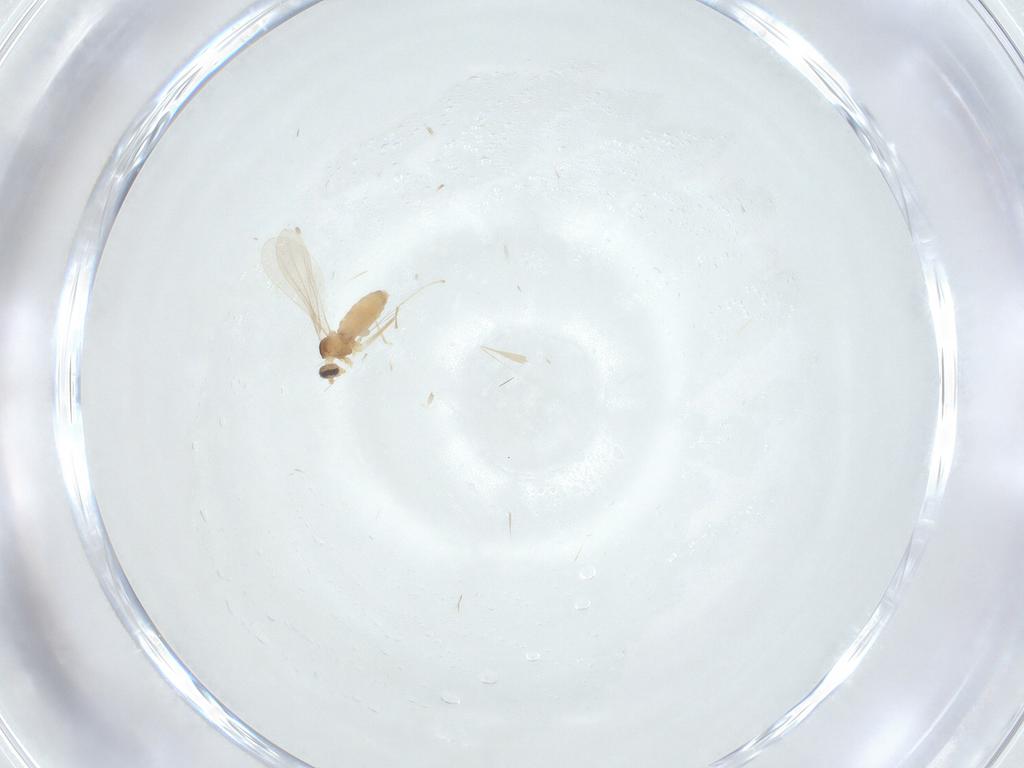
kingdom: Animalia
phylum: Arthropoda
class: Insecta
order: Diptera
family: Cecidomyiidae
